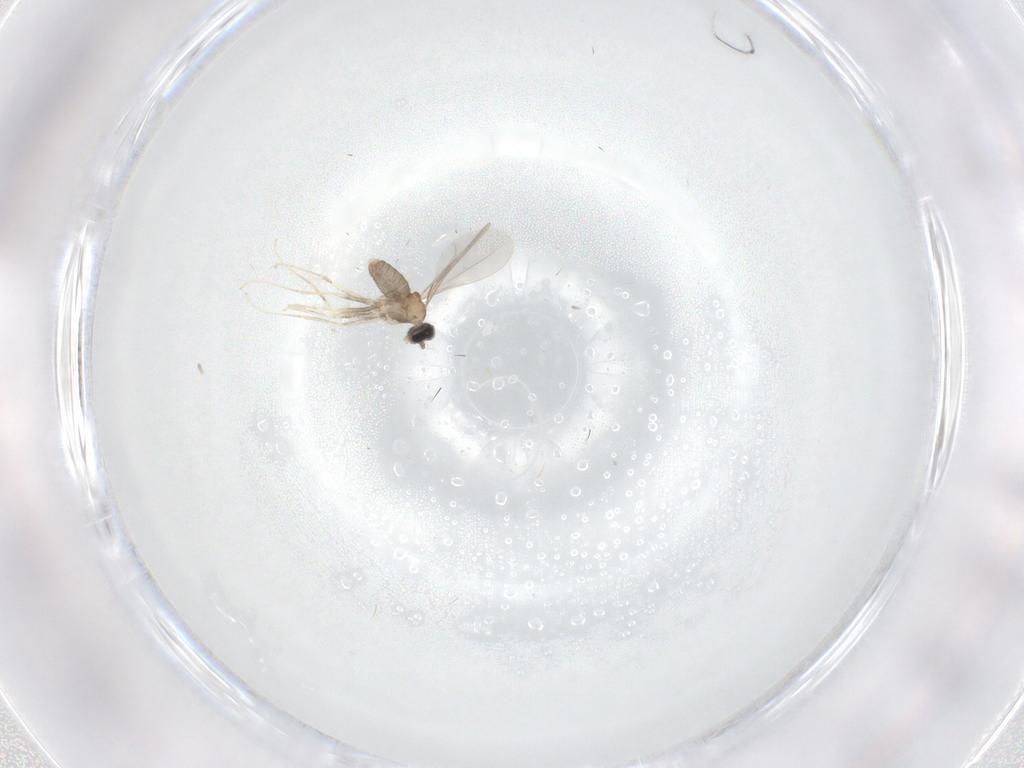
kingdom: Animalia
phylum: Arthropoda
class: Insecta
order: Diptera
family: Cecidomyiidae
